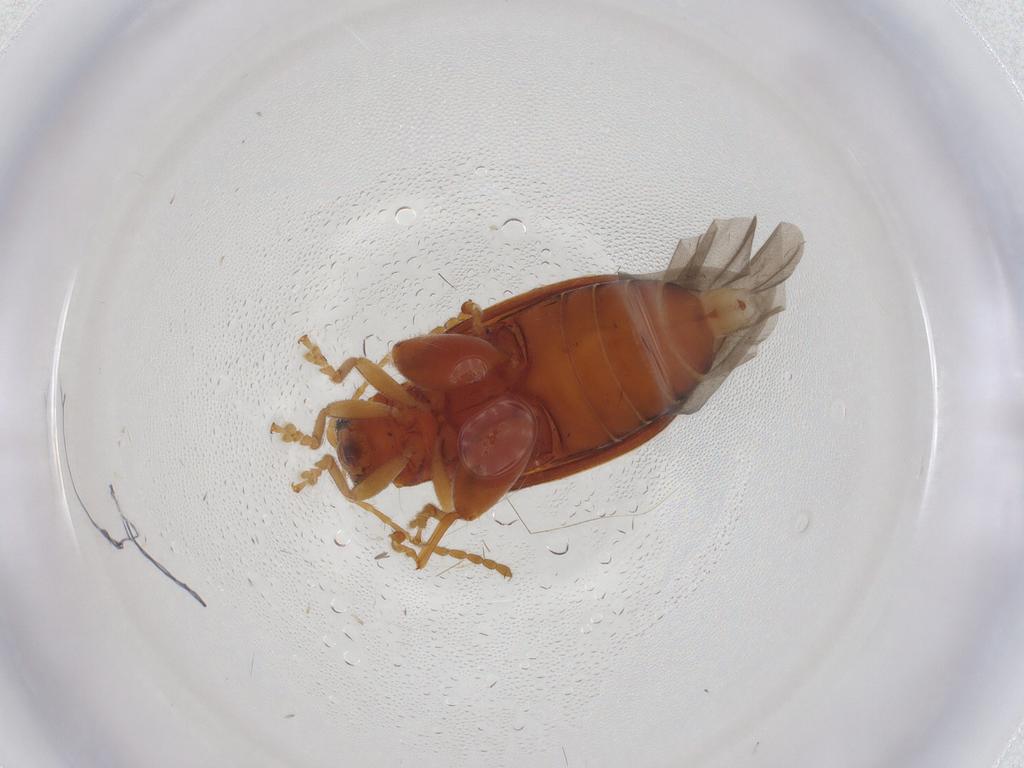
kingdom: Animalia
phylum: Arthropoda
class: Insecta
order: Coleoptera
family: Chrysomelidae
